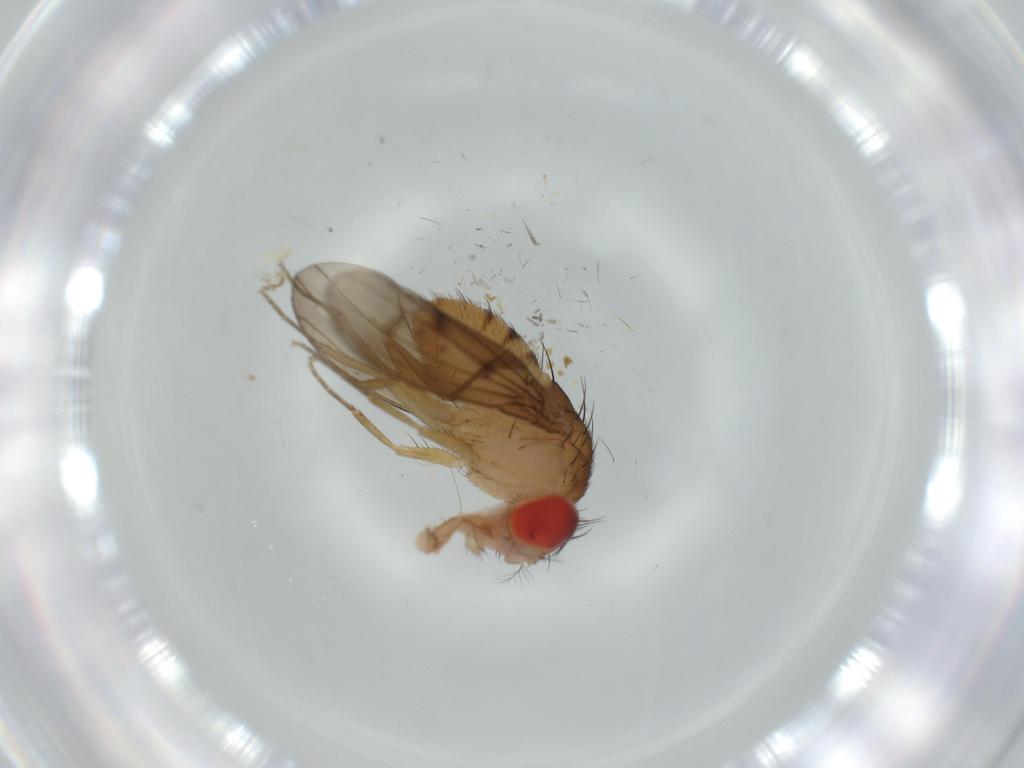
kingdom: Animalia
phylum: Arthropoda
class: Insecta
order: Diptera
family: Drosophilidae
